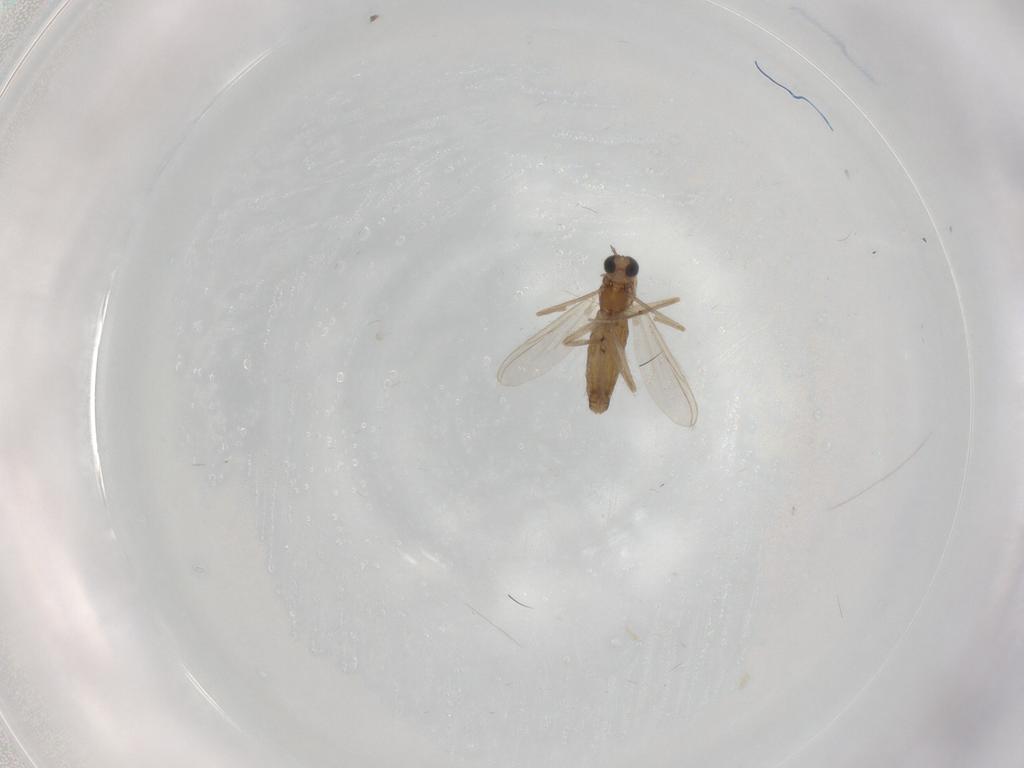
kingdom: Animalia
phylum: Arthropoda
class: Insecta
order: Diptera
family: Chironomidae
